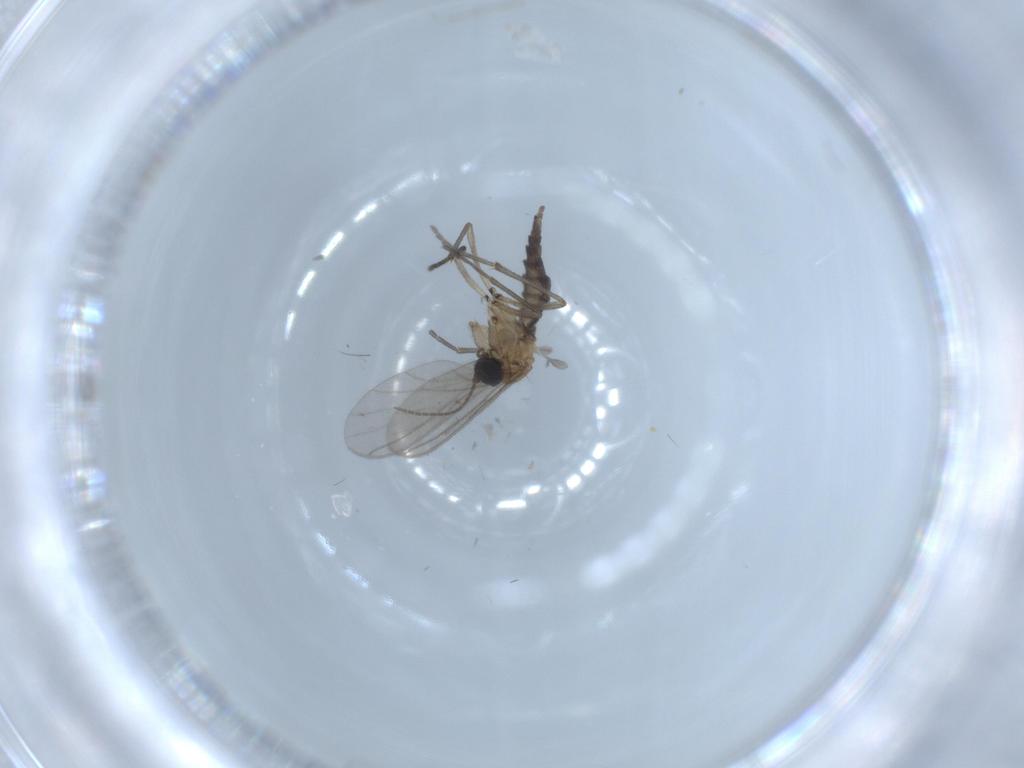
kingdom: Animalia
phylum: Arthropoda
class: Insecta
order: Diptera
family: Sciaridae
